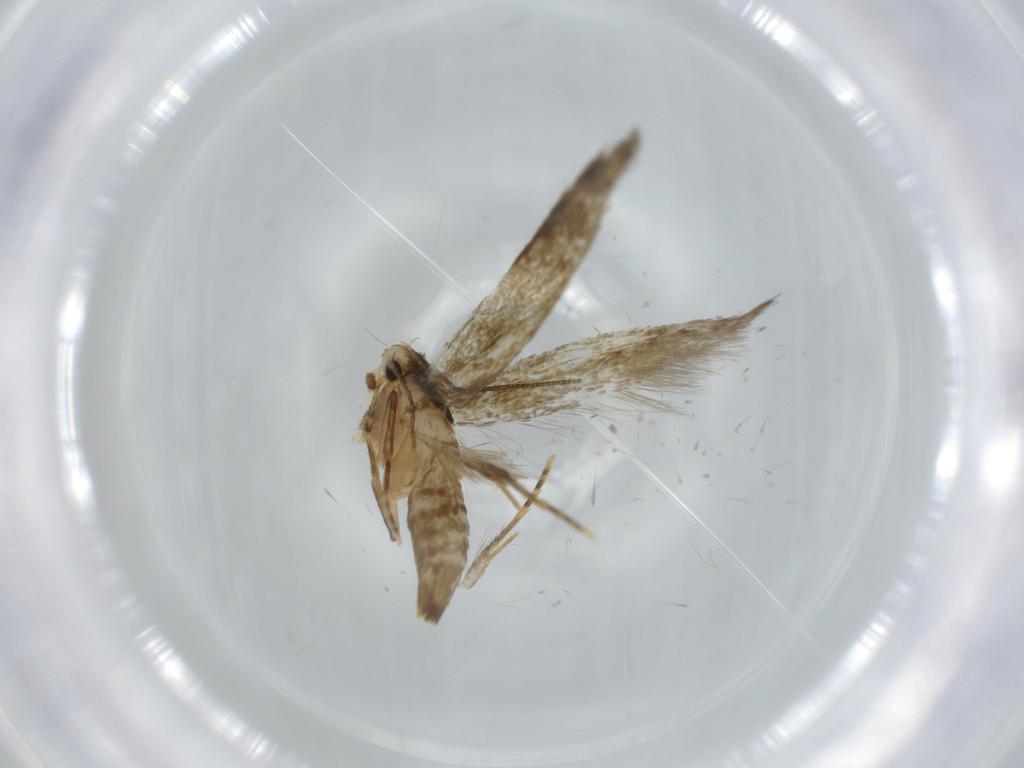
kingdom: Animalia
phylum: Arthropoda
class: Insecta
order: Lepidoptera
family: Tineidae
